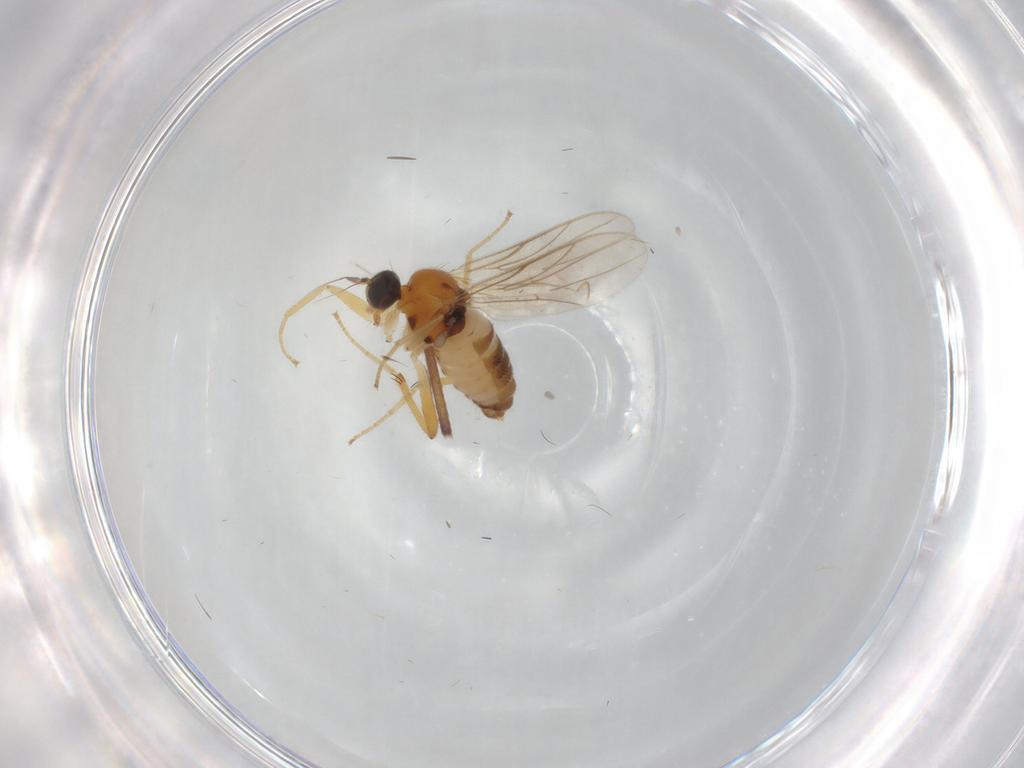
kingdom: Animalia
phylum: Arthropoda
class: Insecta
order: Diptera
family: Hybotidae
